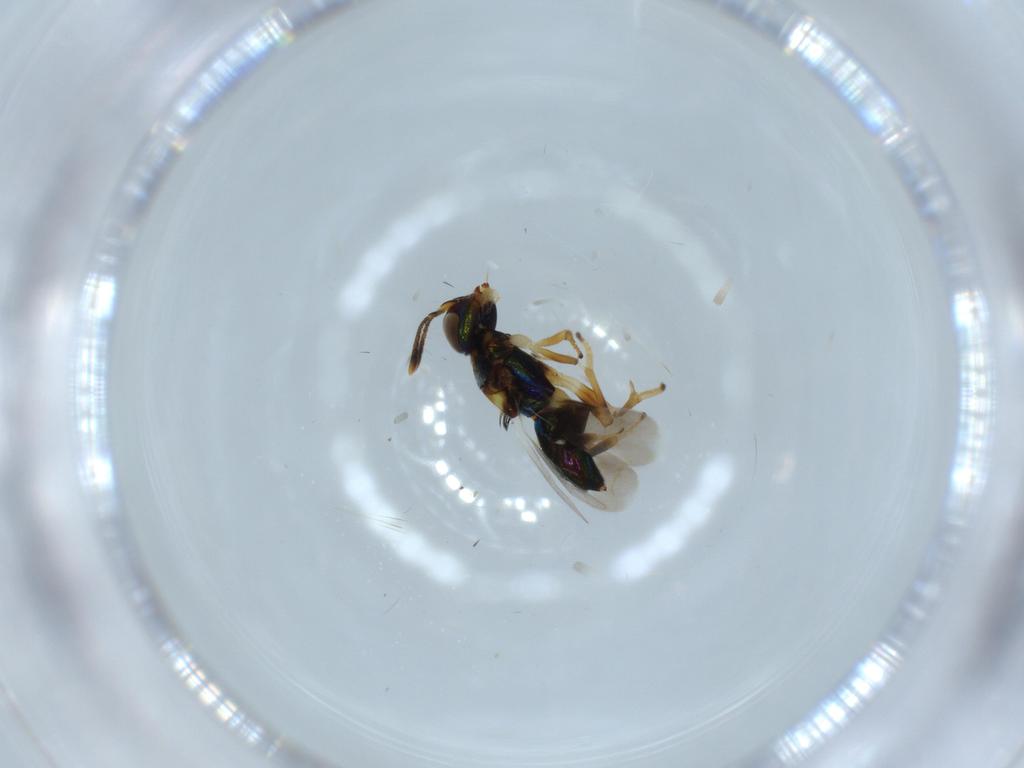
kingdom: Animalia
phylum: Arthropoda
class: Insecta
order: Hymenoptera
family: Encyrtidae
